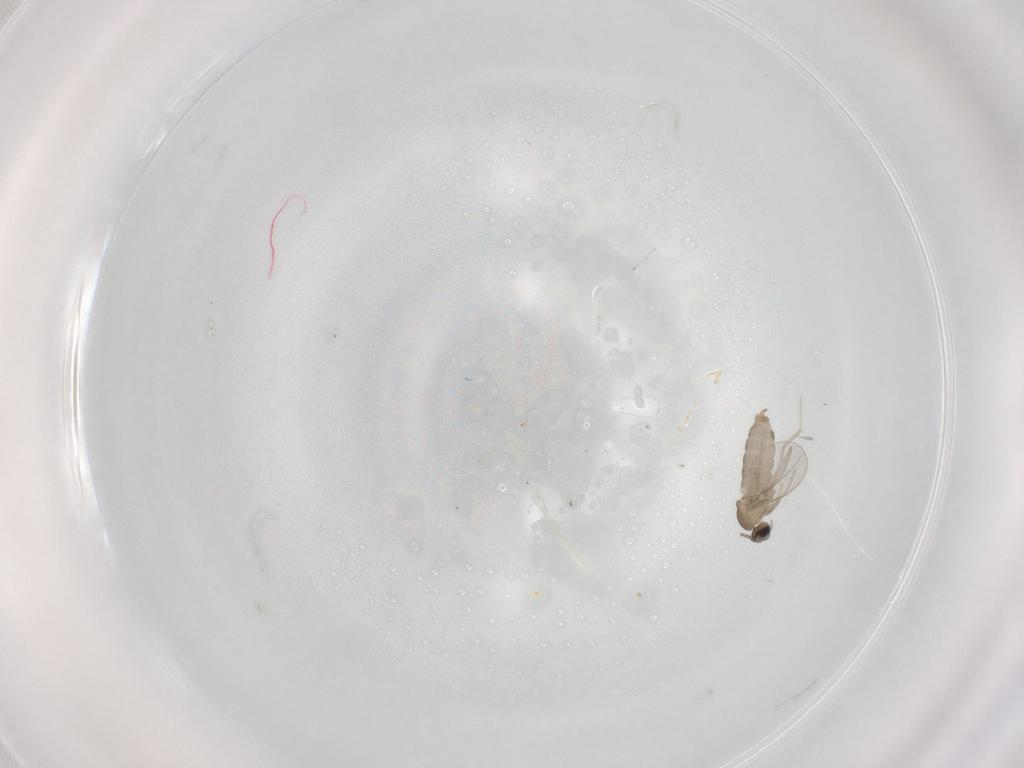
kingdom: Animalia
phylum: Arthropoda
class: Insecta
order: Diptera
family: Cecidomyiidae
